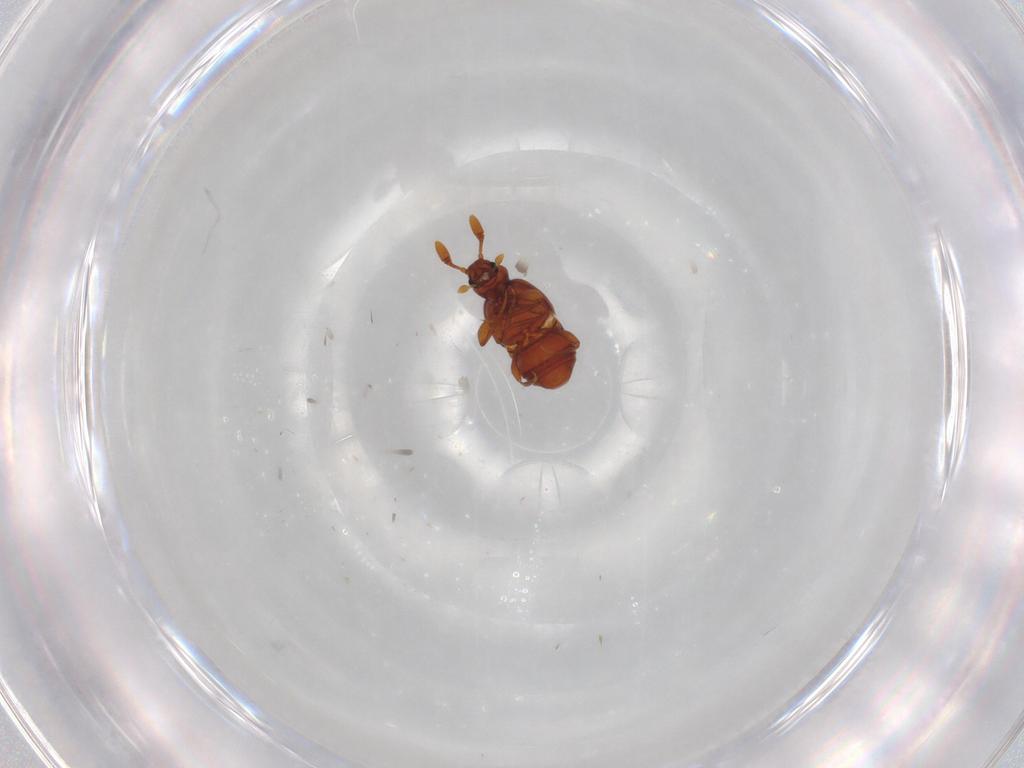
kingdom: Animalia
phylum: Arthropoda
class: Insecta
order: Coleoptera
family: Staphylinidae
